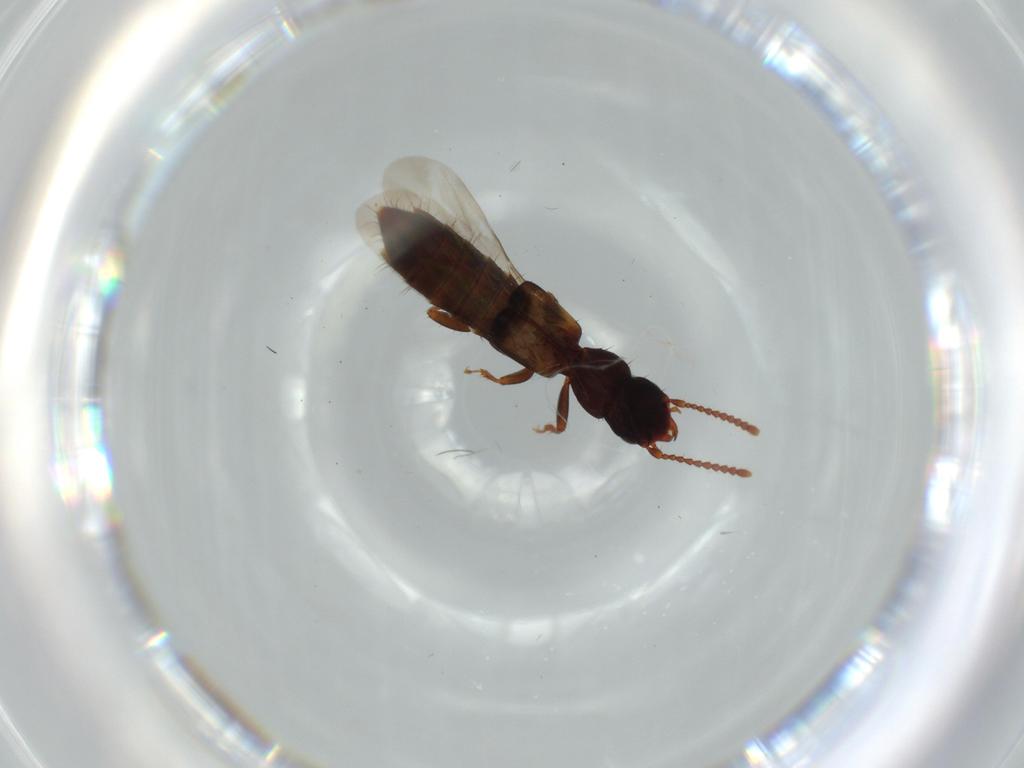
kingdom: Animalia
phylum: Arthropoda
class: Insecta
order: Coleoptera
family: Staphylinidae
